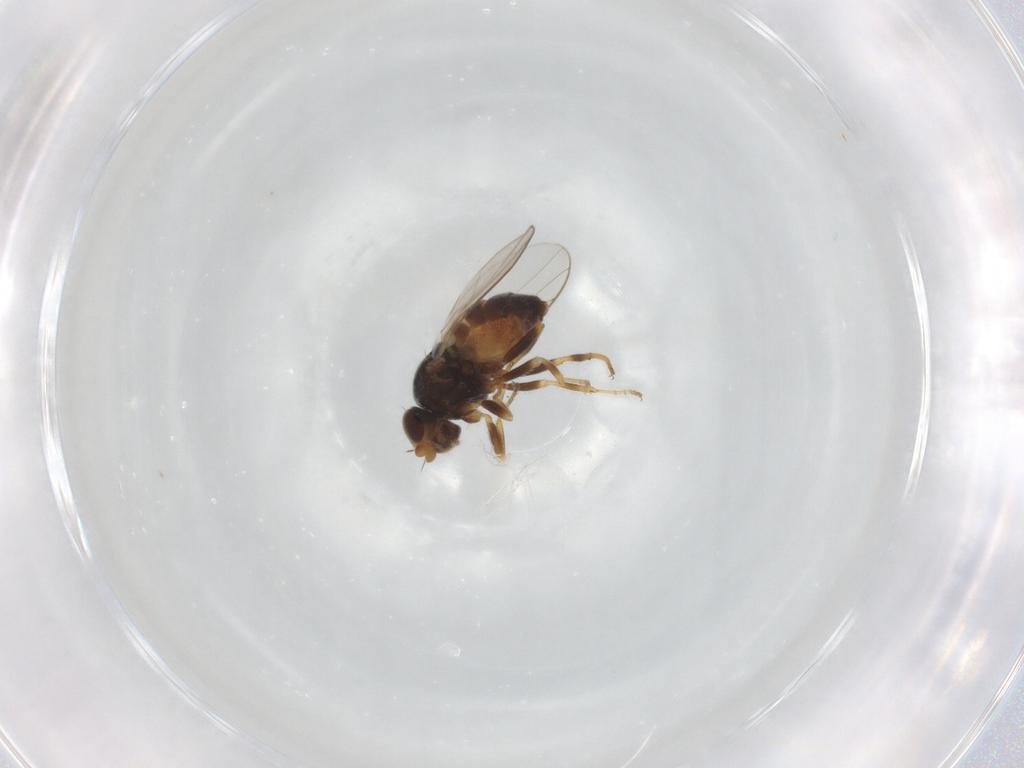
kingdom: Animalia
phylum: Arthropoda
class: Insecta
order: Diptera
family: Chloropidae
